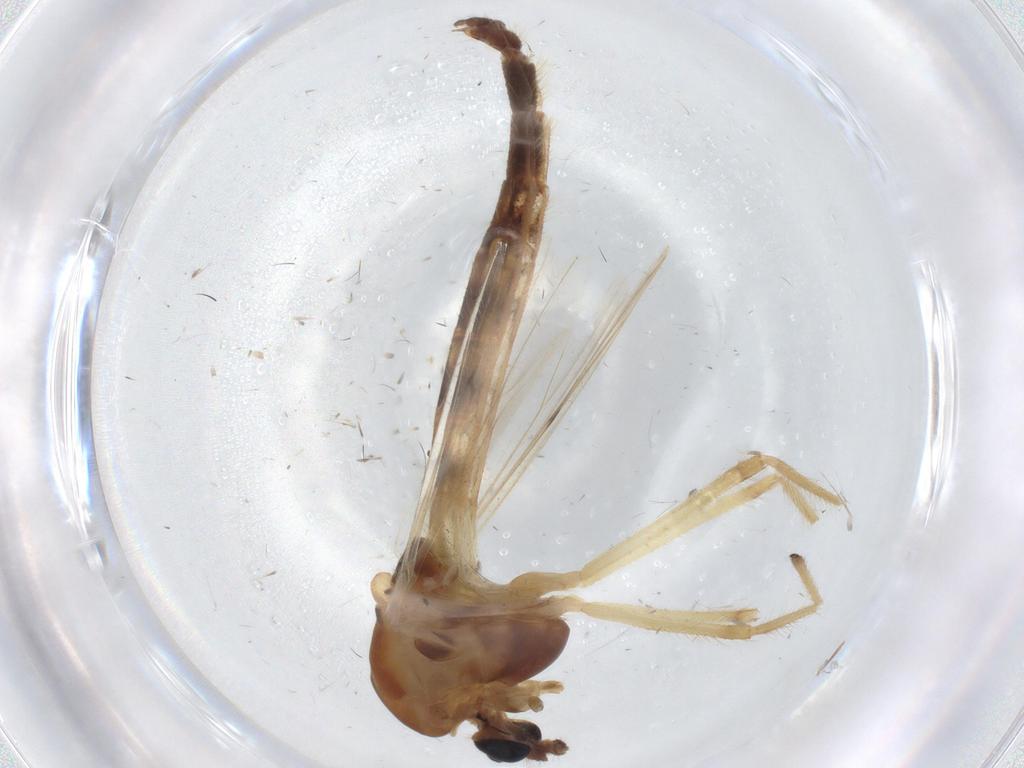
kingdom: Animalia
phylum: Arthropoda
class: Insecta
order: Diptera
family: Chironomidae
